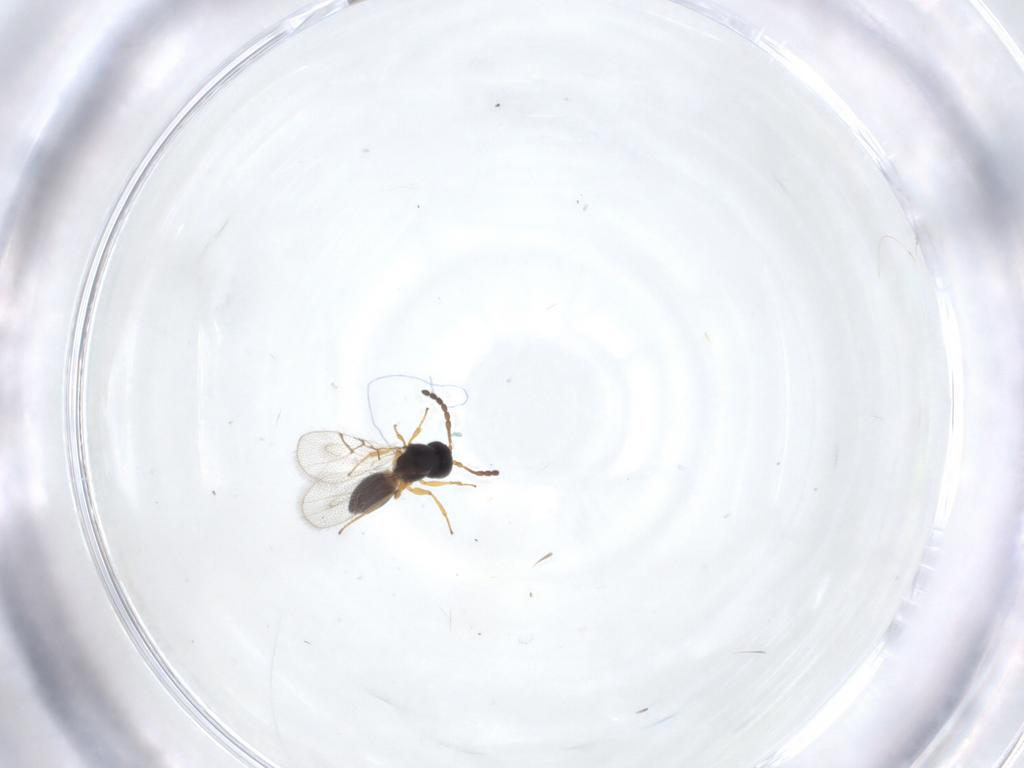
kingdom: Animalia
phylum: Arthropoda
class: Insecta
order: Hymenoptera
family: Figitidae
